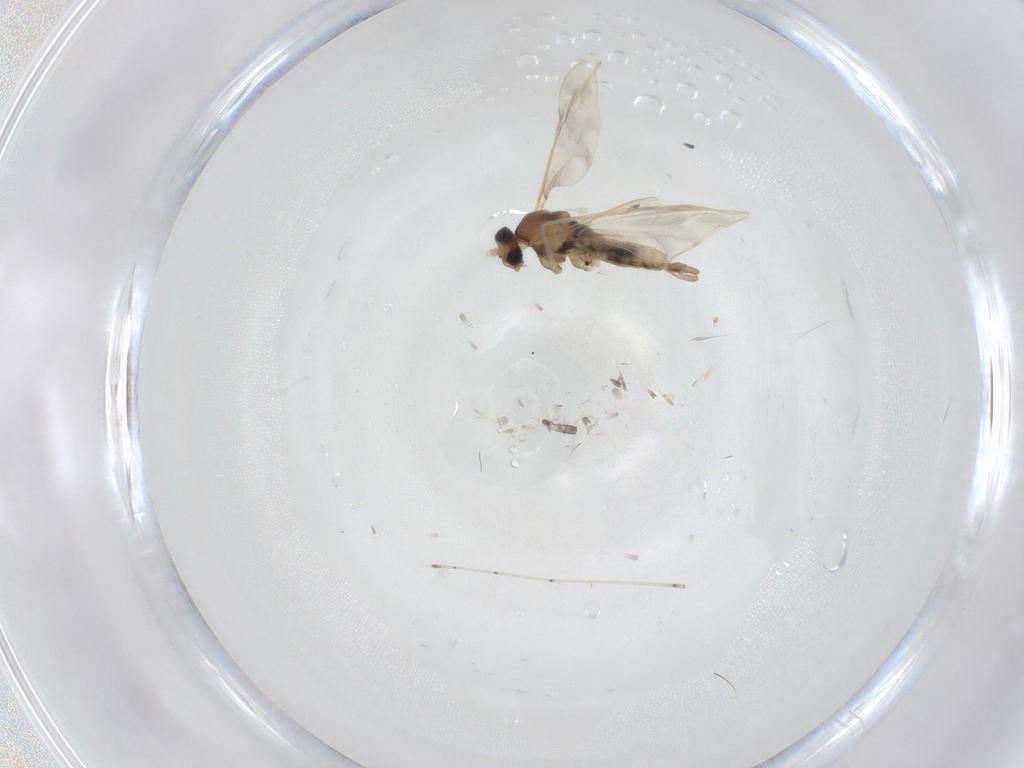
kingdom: Animalia
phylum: Arthropoda
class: Insecta
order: Diptera
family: Cecidomyiidae
